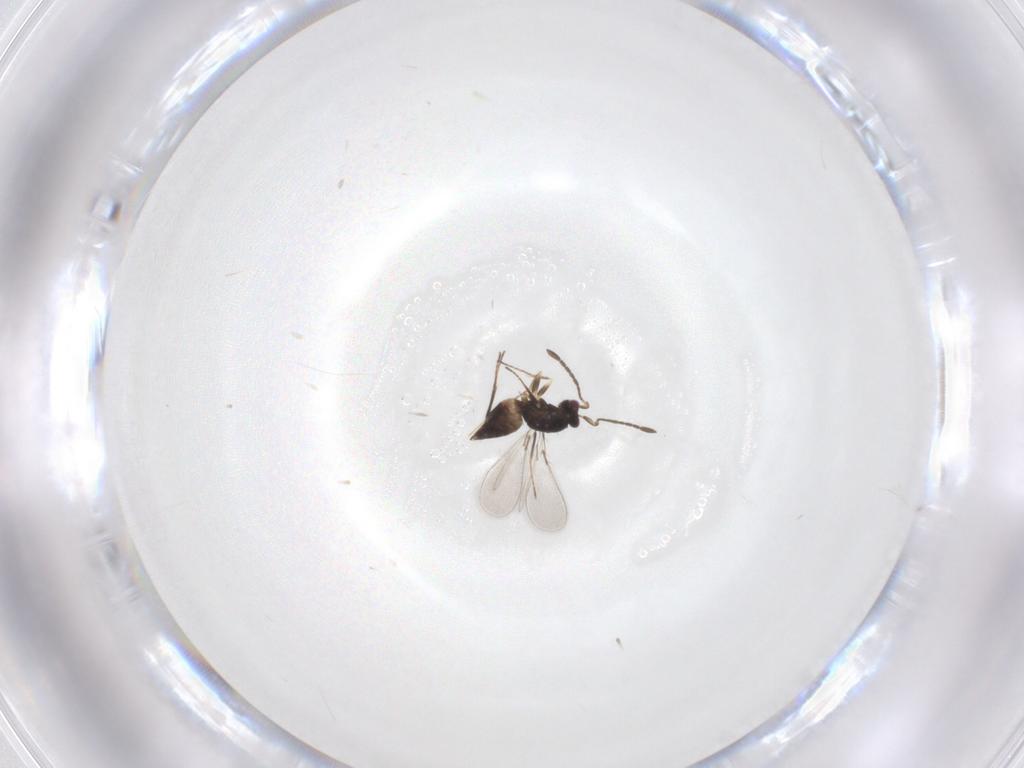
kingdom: Animalia
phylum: Arthropoda
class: Insecta
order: Hymenoptera
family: Mymaridae
